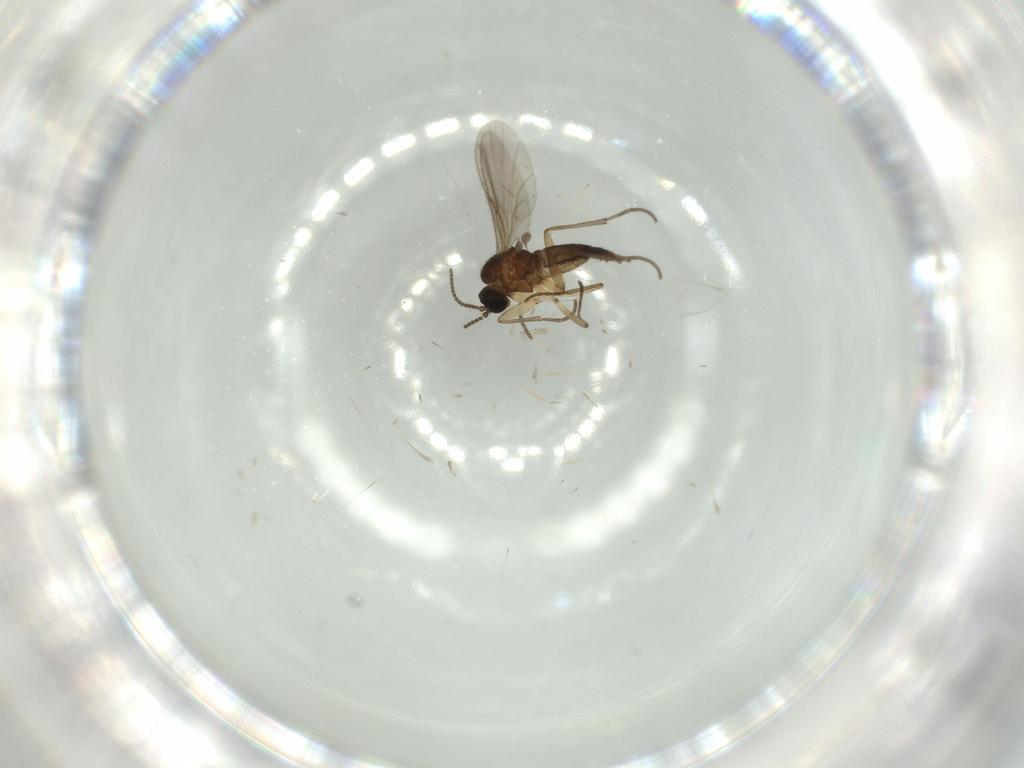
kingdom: Animalia
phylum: Arthropoda
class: Insecta
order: Diptera
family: Sciaridae
